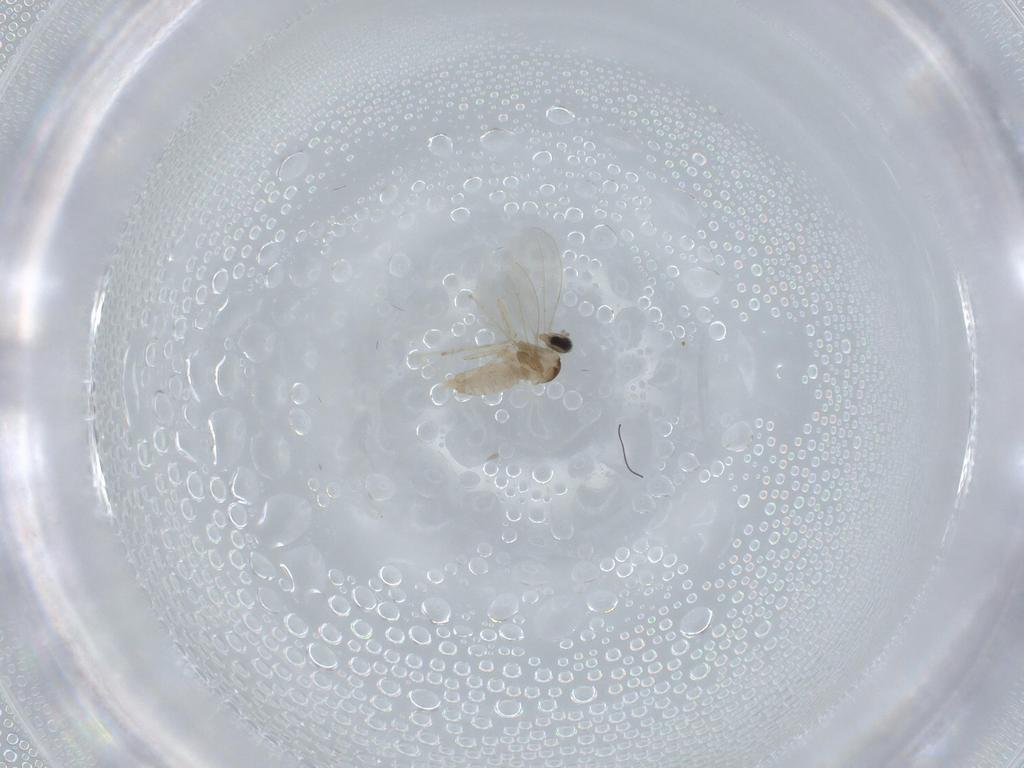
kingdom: Animalia
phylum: Arthropoda
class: Insecta
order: Diptera
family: Cecidomyiidae
